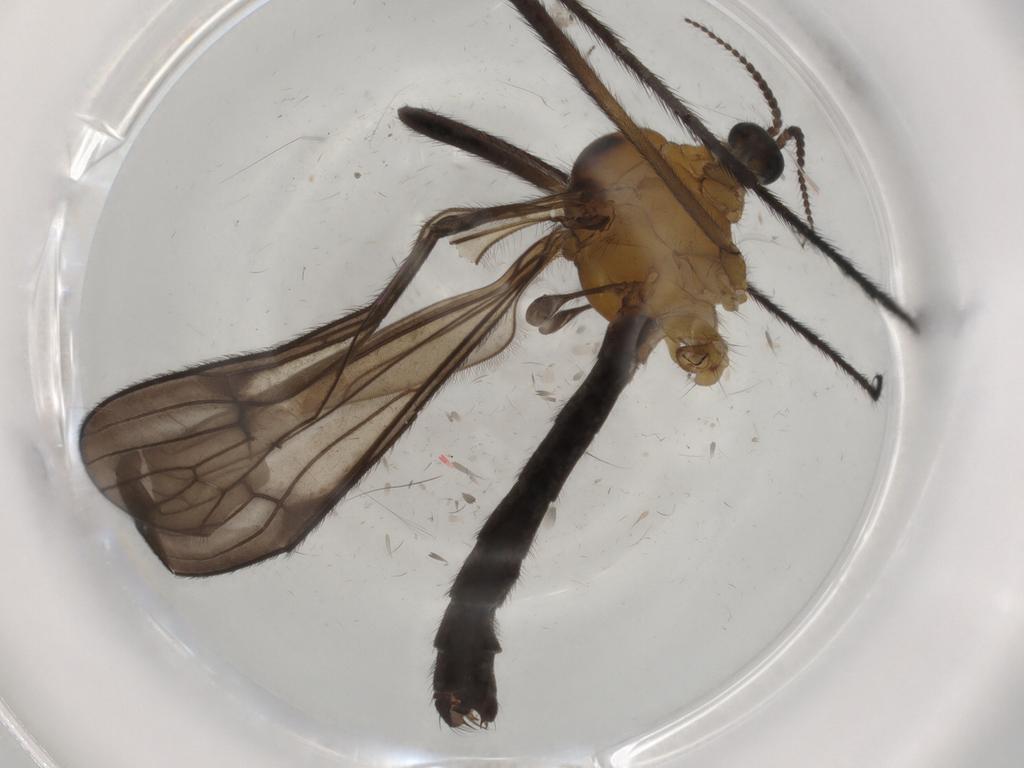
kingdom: Animalia
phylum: Arthropoda
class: Insecta
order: Diptera
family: Limoniidae
